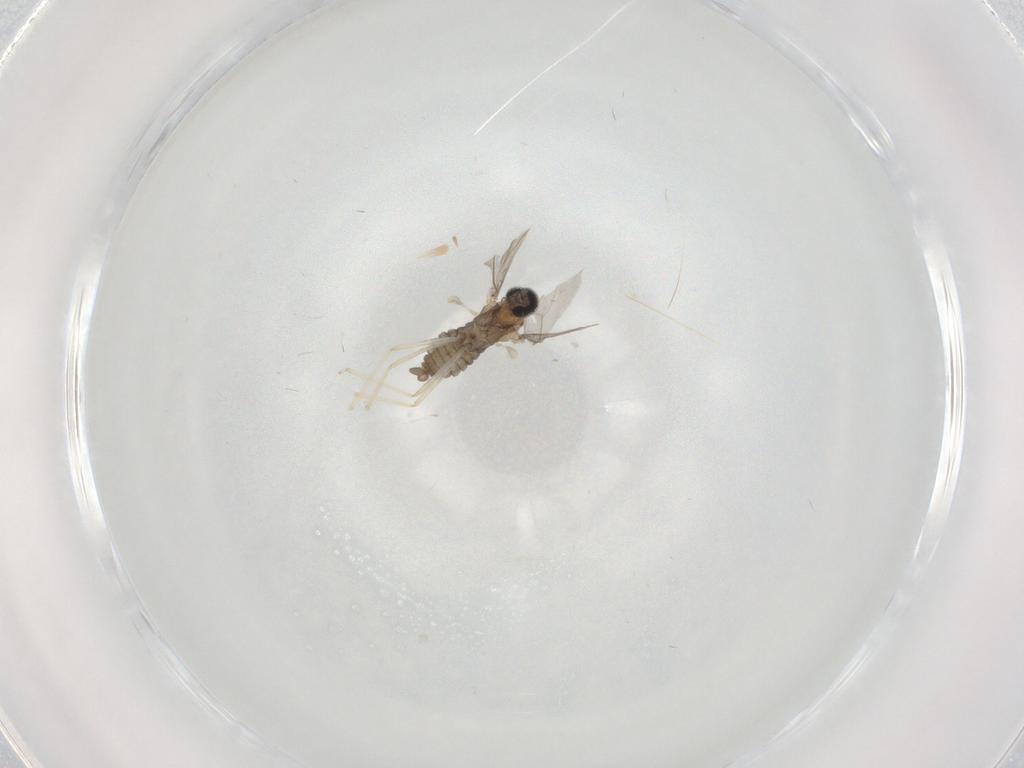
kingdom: Animalia
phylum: Arthropoda
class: Insecta
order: Diptera
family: Cecidomyiidae
